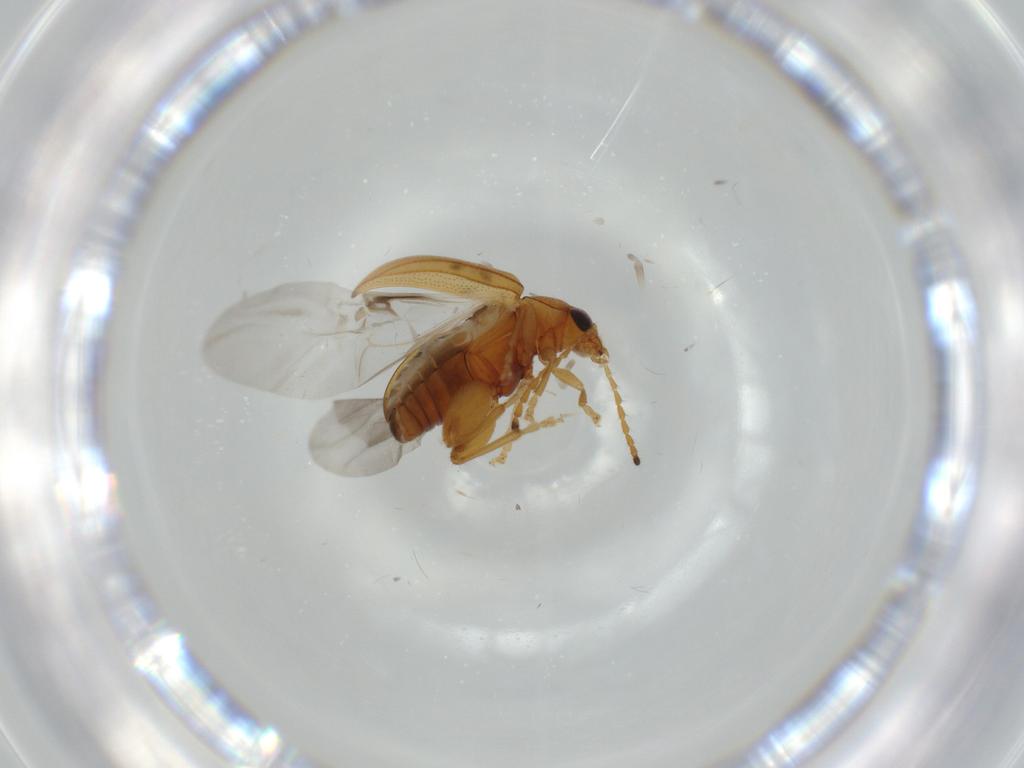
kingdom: Animalia
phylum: Arthropoda
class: Insecta
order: Coleoptera
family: Chrysomelidae
